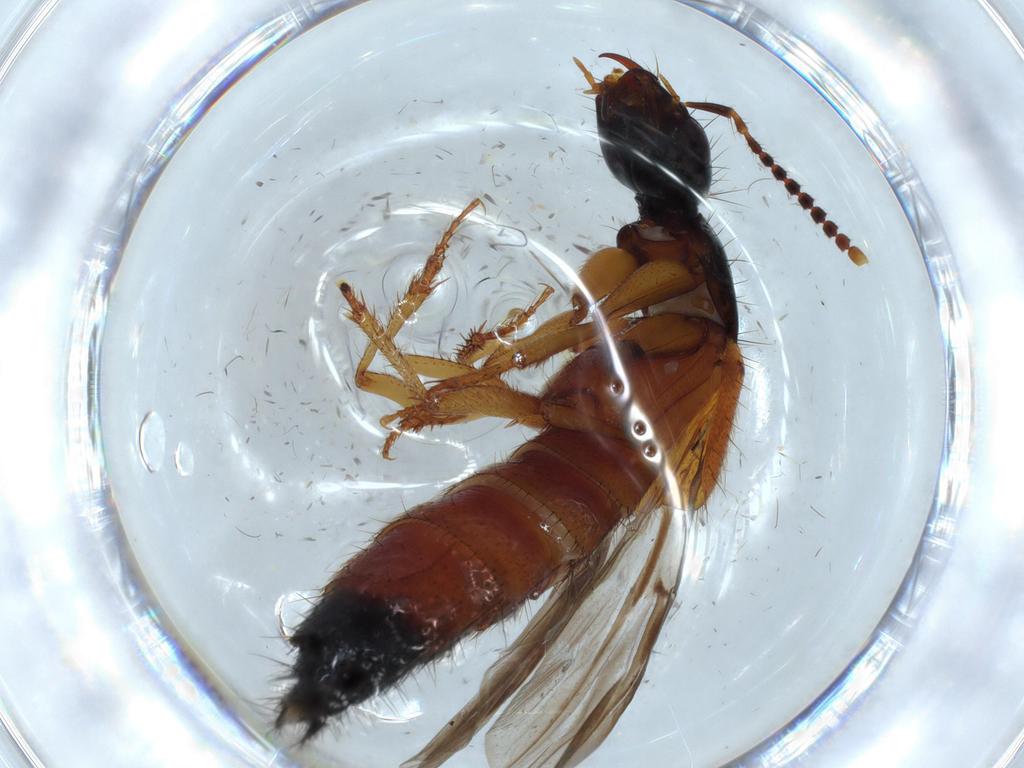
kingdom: Animalia
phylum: Arthropoda
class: Insecta
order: Coleoptera
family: Staphylinidae
